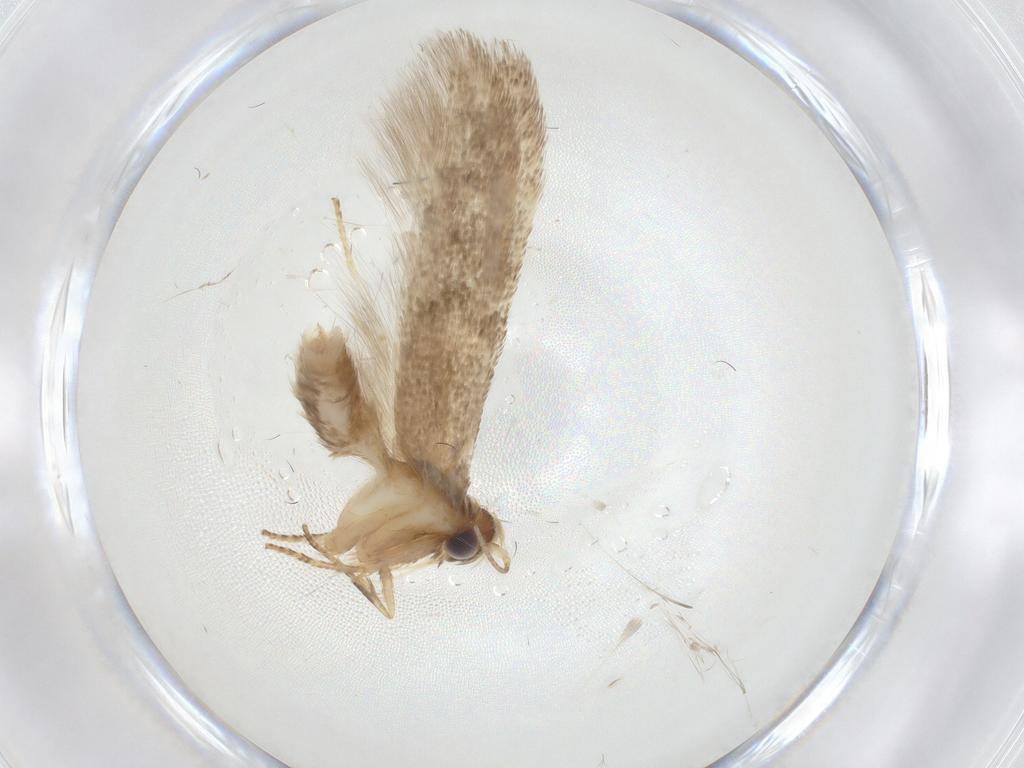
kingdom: Animalia
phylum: Arthropoda
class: Insecta
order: Lepidoptera
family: Blastobasidae
